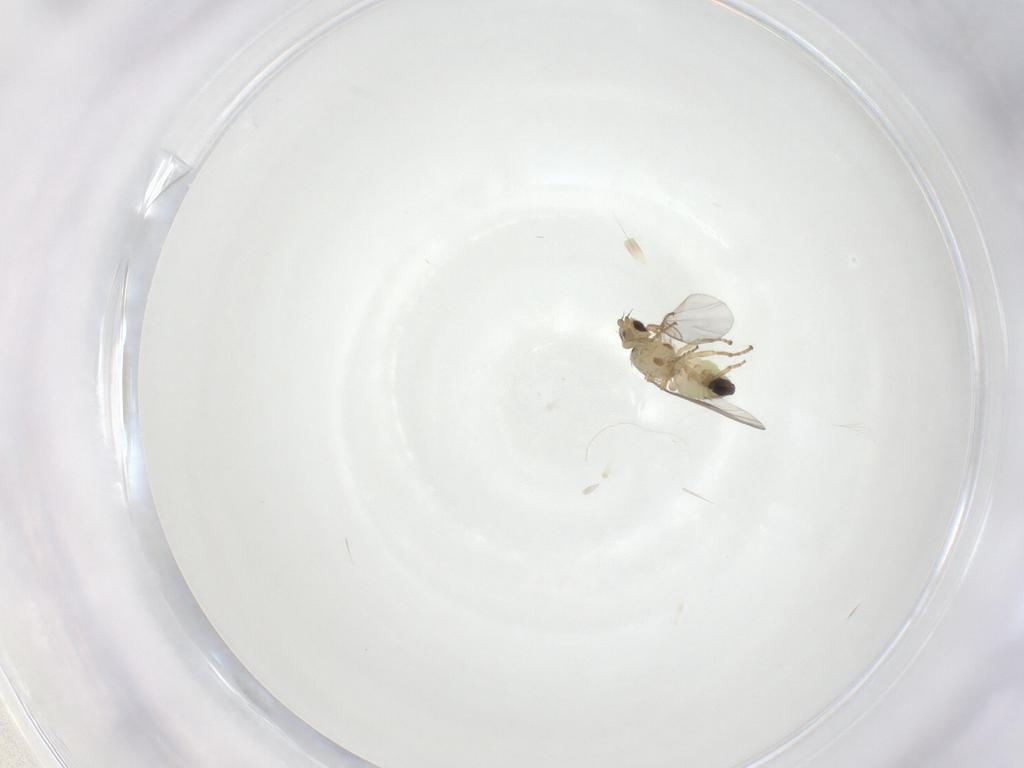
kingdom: Animalia
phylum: Arthropoda
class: Insecta
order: Diptera
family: Agromyzidae
